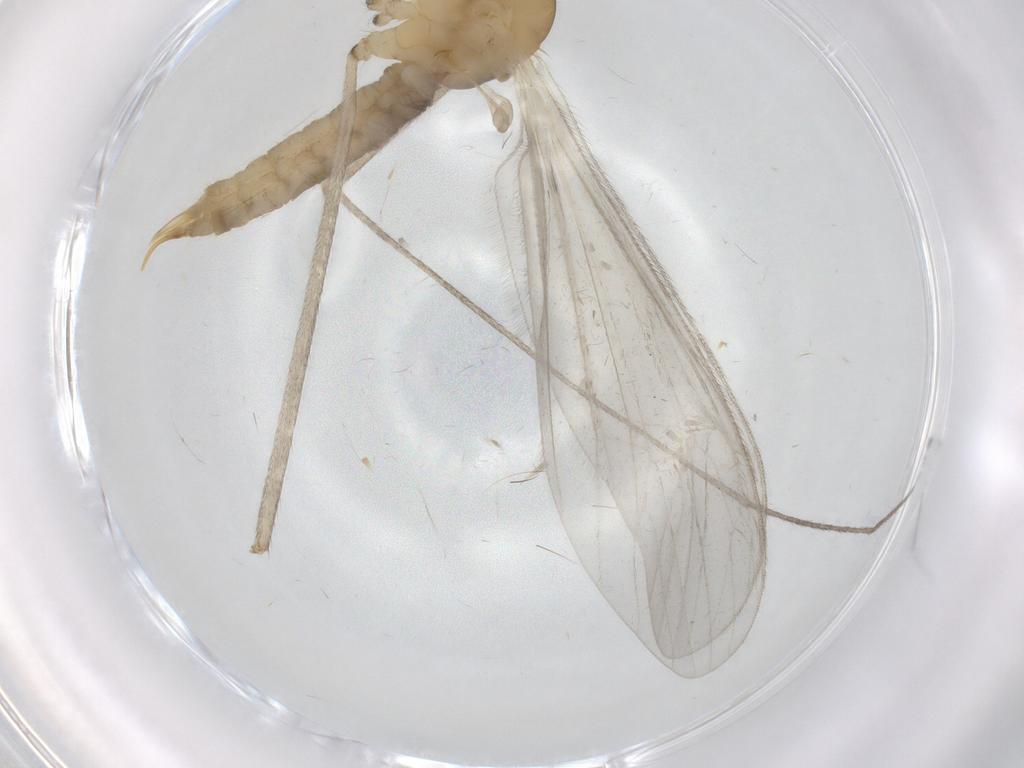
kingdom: Animalia
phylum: Arthropoda
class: Insecta
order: Diptera
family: Limoniidae
